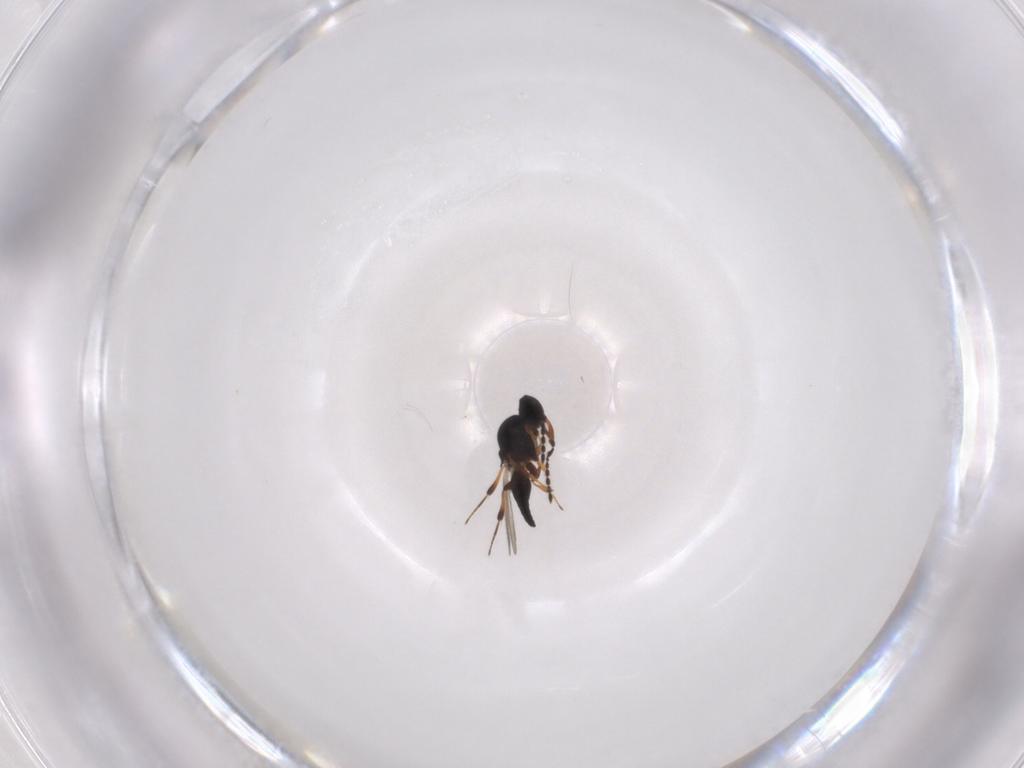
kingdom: Animalia
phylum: Arthropoda
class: Insecta
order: Hymenoptera
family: Platygastridae
